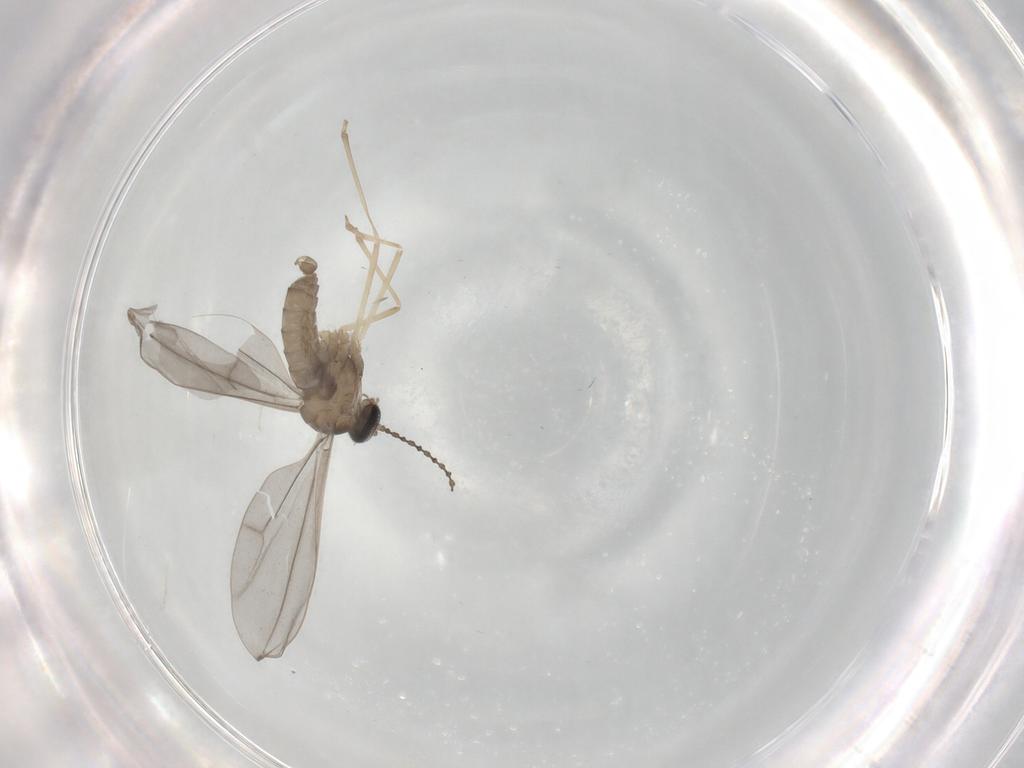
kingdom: Animalia
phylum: Arthropoda
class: Insecta
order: Diptera
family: Cecidomyiidae
